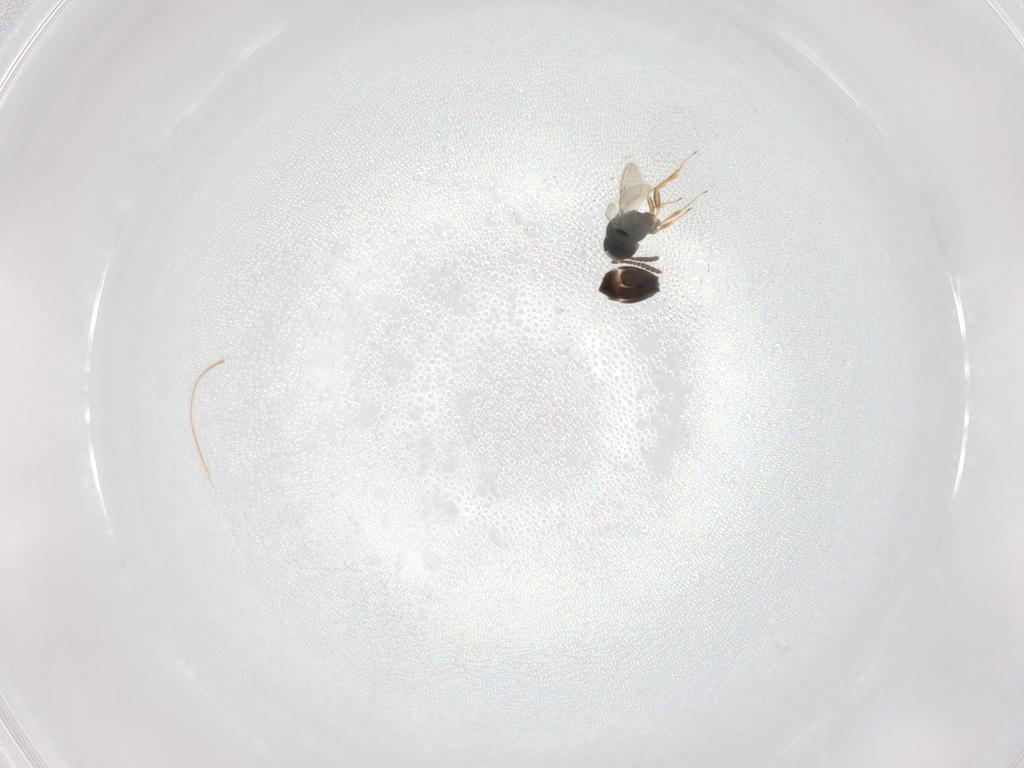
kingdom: Animalia
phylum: Arthropoda
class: Insecta
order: Hymenoptera
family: Scelionidae
